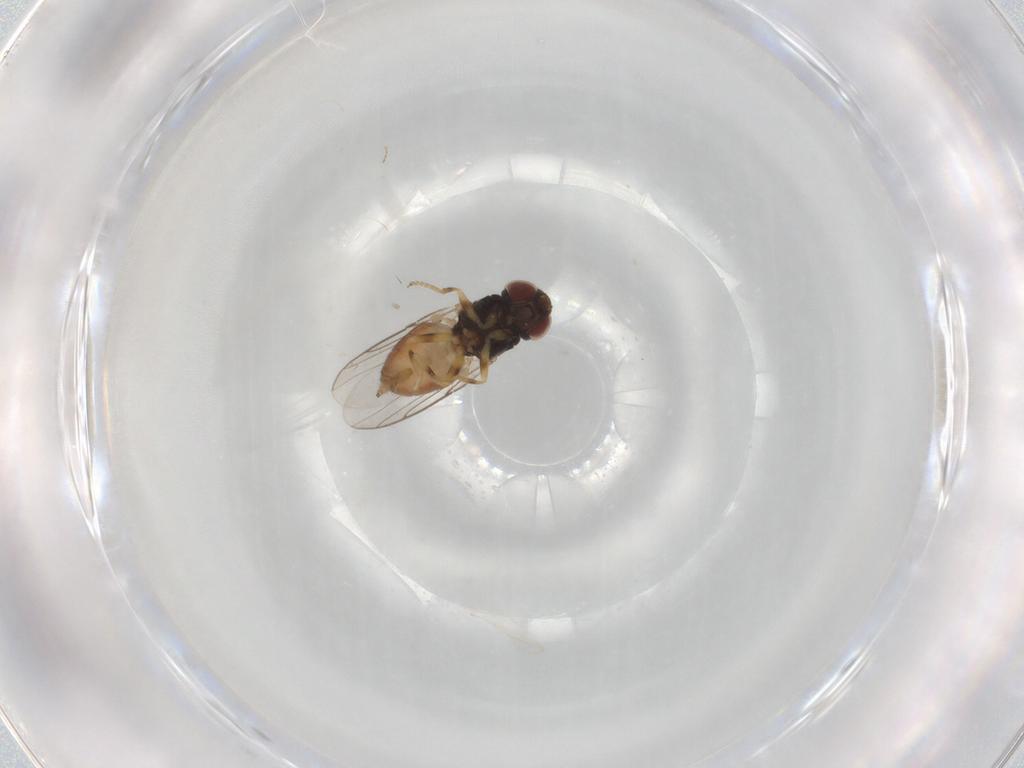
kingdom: Animalia
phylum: Arthropoda
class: Insecta
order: Diptera
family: Chloropidae
